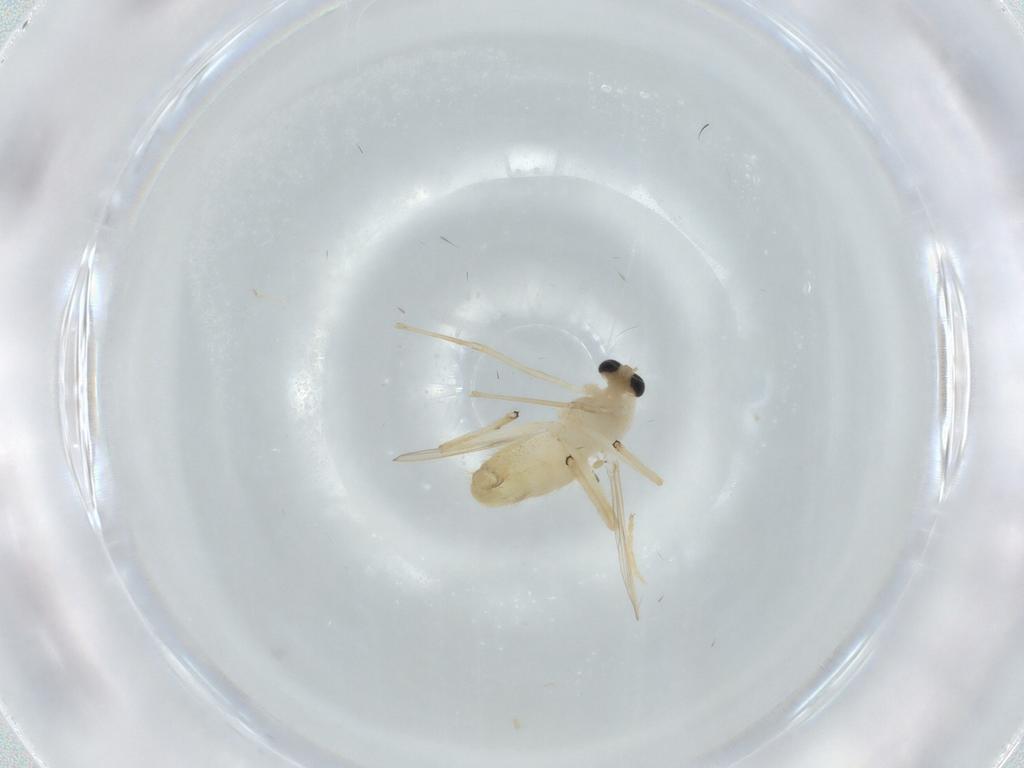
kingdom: Animalia
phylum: Arthropoda
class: Insecta
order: Diptera
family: Chironomidae
